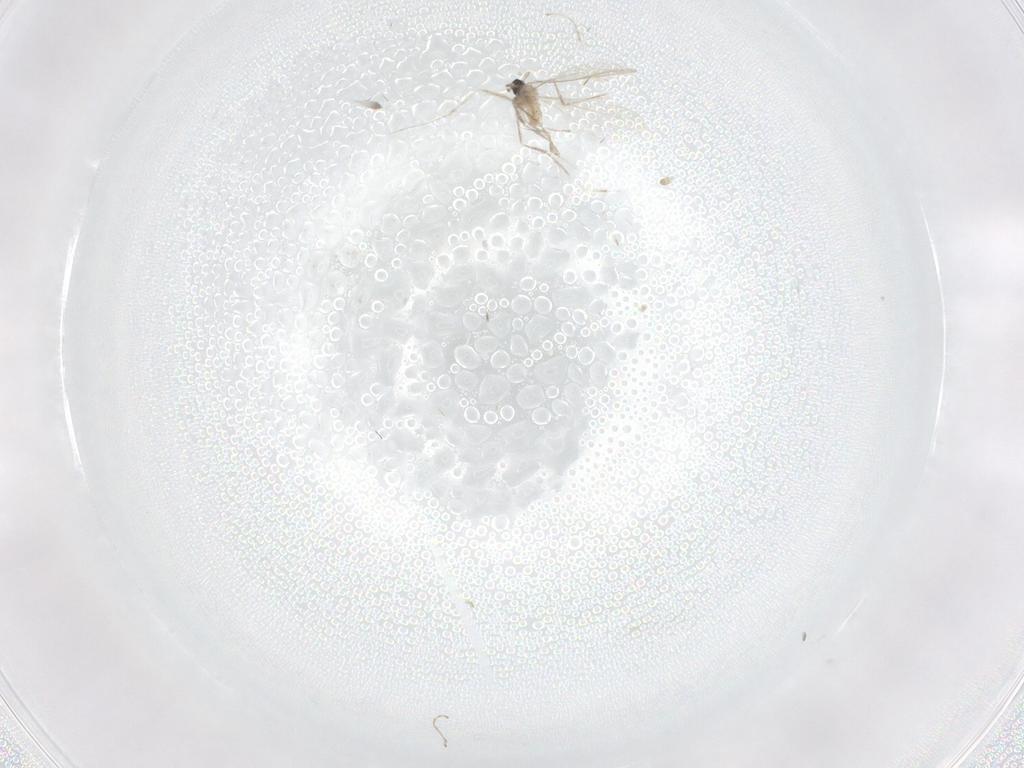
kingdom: Animalia
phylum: Arthropoda
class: Insecta
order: Diptera
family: Cecidomyiidae
